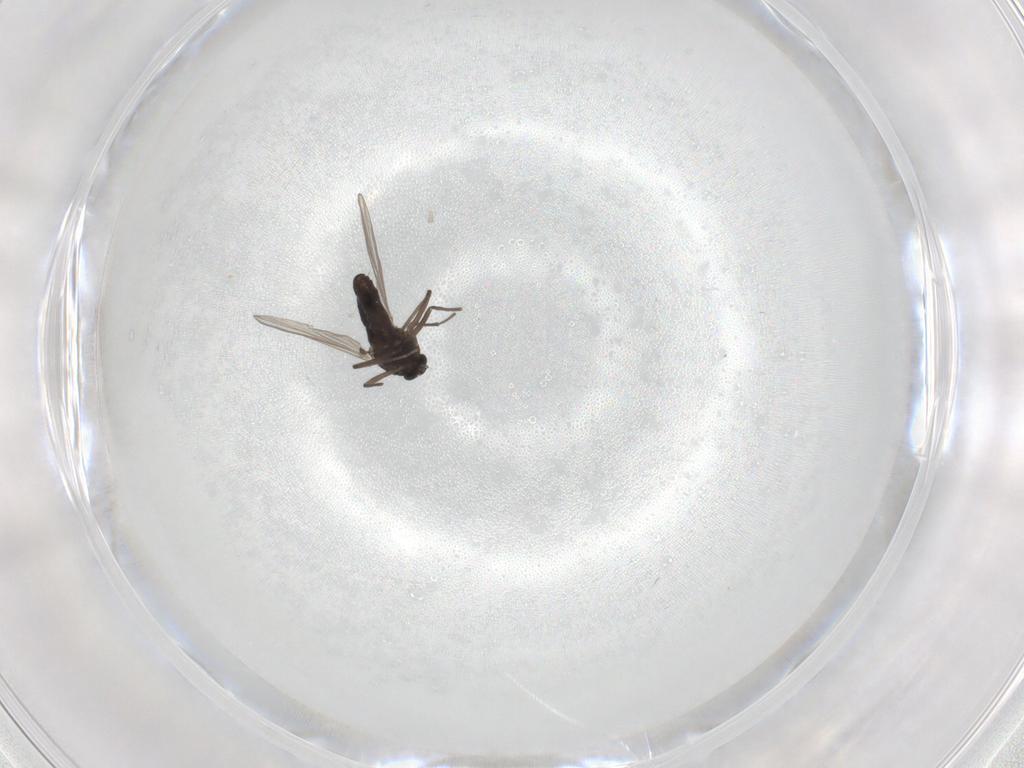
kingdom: Animalia
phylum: Arthropoda
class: Insecta
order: Diptera
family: Chironomidae
